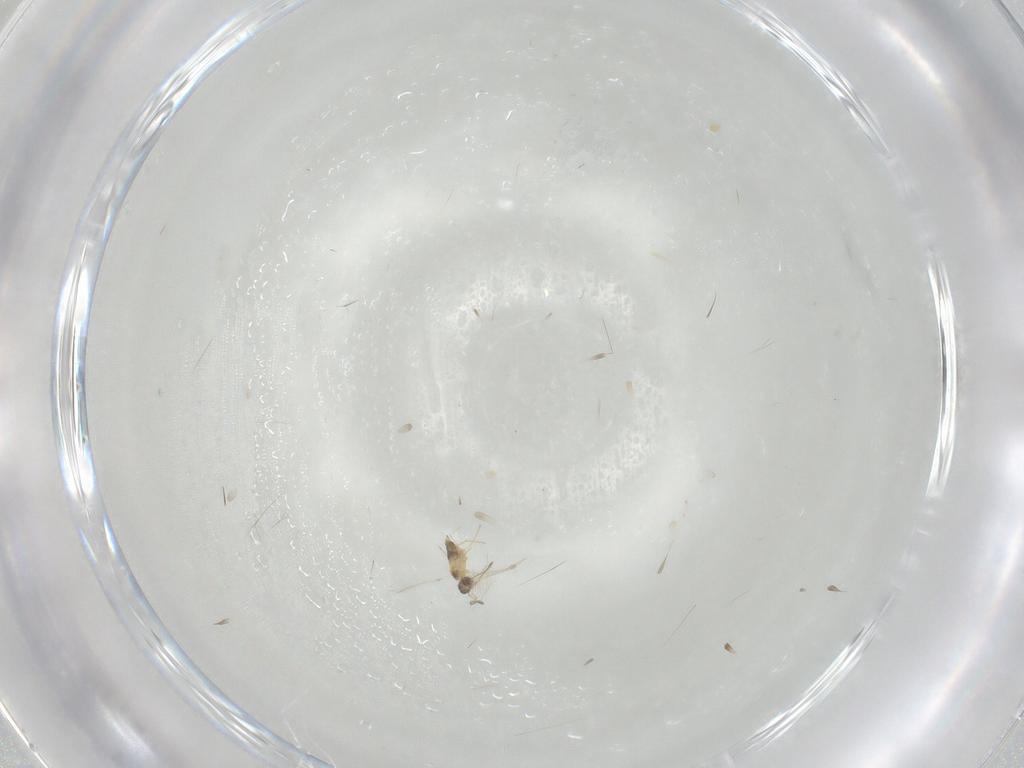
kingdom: Animalia
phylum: Arthropoda
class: Insecta
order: Hymenoptera
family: Mymaridae
